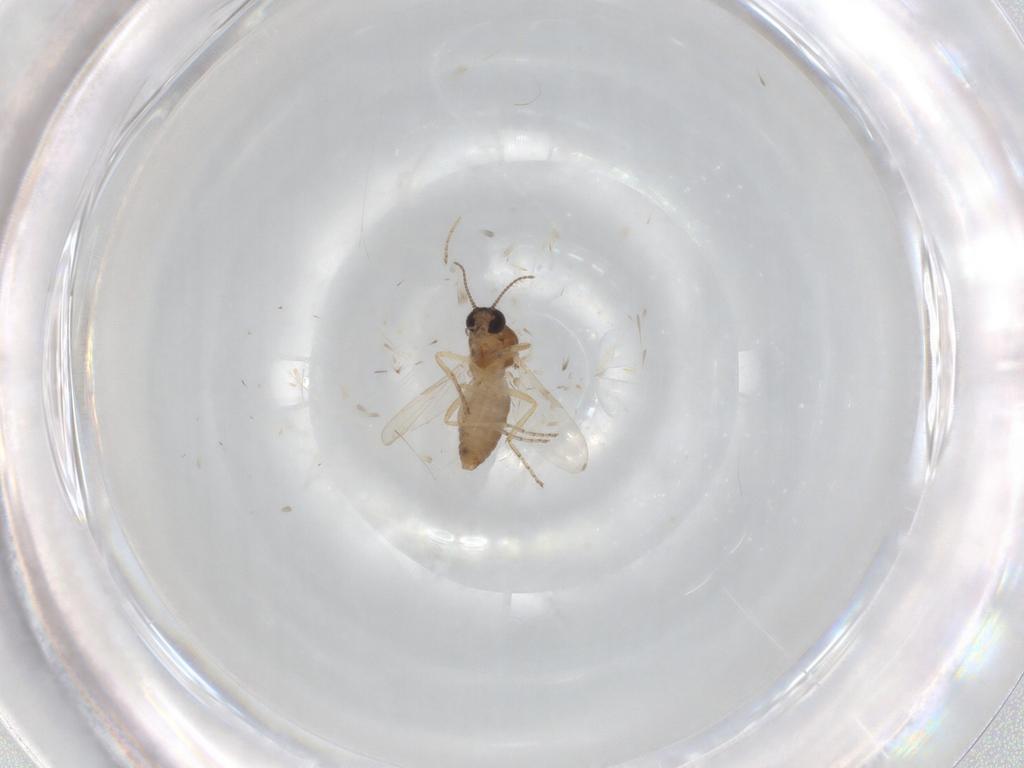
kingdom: Animalia
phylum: Arthropoda
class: Insecta
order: Diptera
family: Ceratopogonidae
